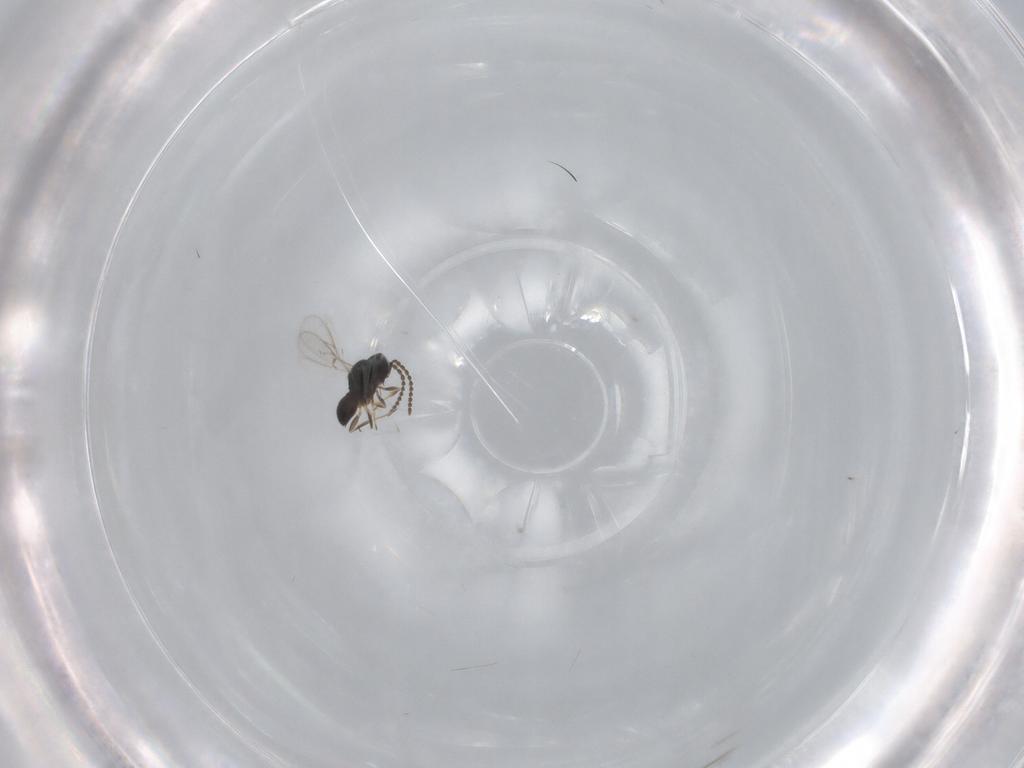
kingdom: Animalia
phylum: Arthropoda
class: Insecta
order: Hymenoptera
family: Scelionidae
